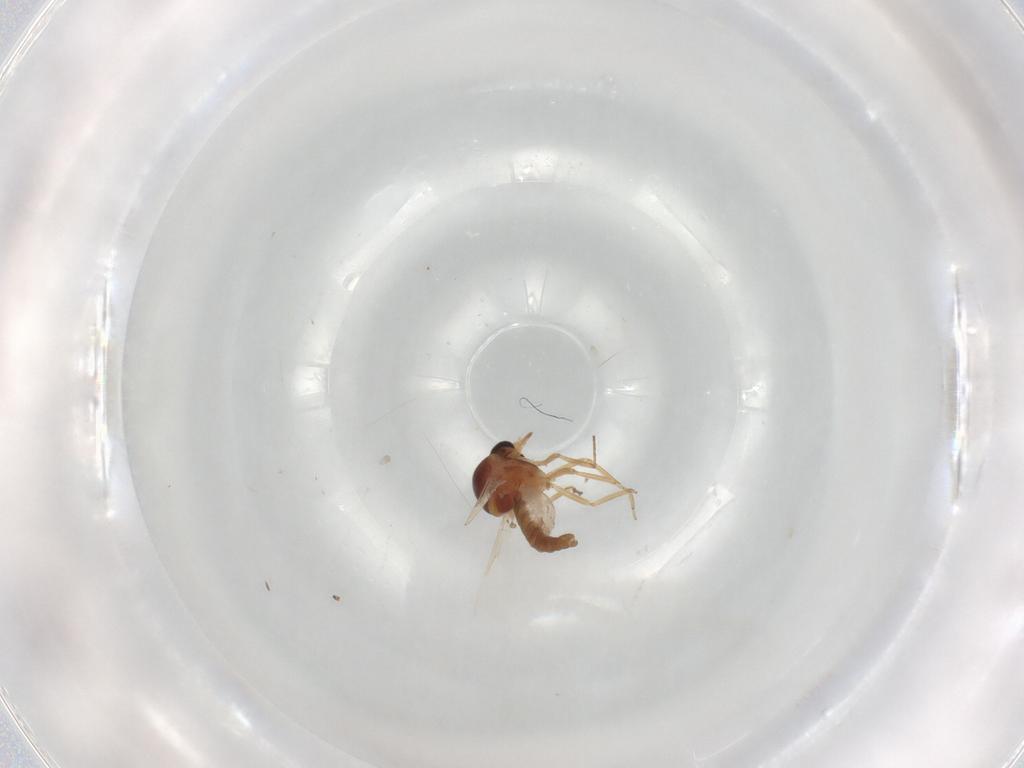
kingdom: Animalia
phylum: Arthropoda
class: Insecta
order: Diptera
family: Ceratopogonidae
